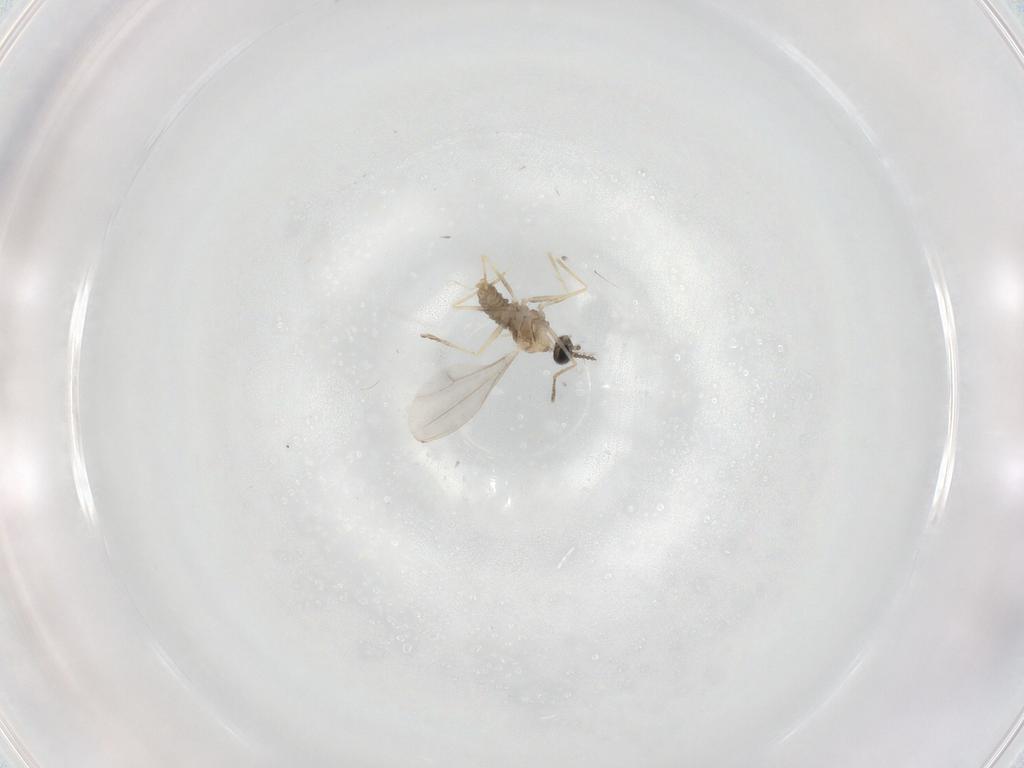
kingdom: Animalia
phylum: Arthropoda
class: Insecta
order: Diptera
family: Cecidomyiidae
